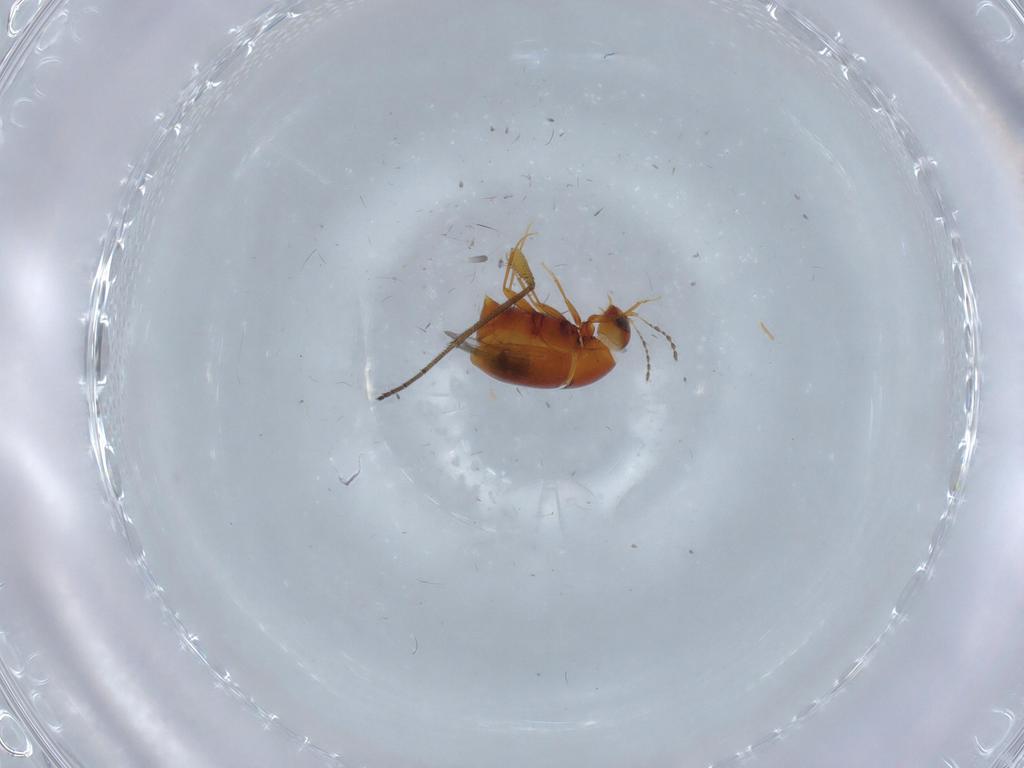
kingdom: Animalia
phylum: Arthropoda
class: Insecta
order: Coleoptera
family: Staphylinidae
